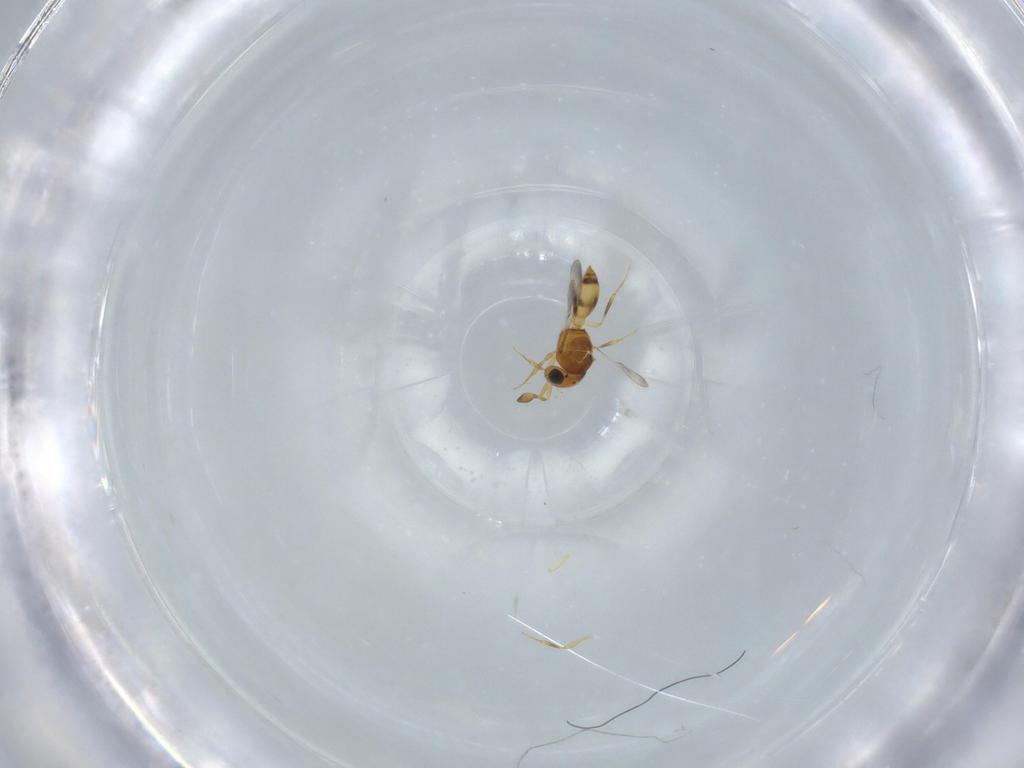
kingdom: Animalia
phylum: Arthropoda
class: Insecta
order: Hymenoptera
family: Scelionidae
